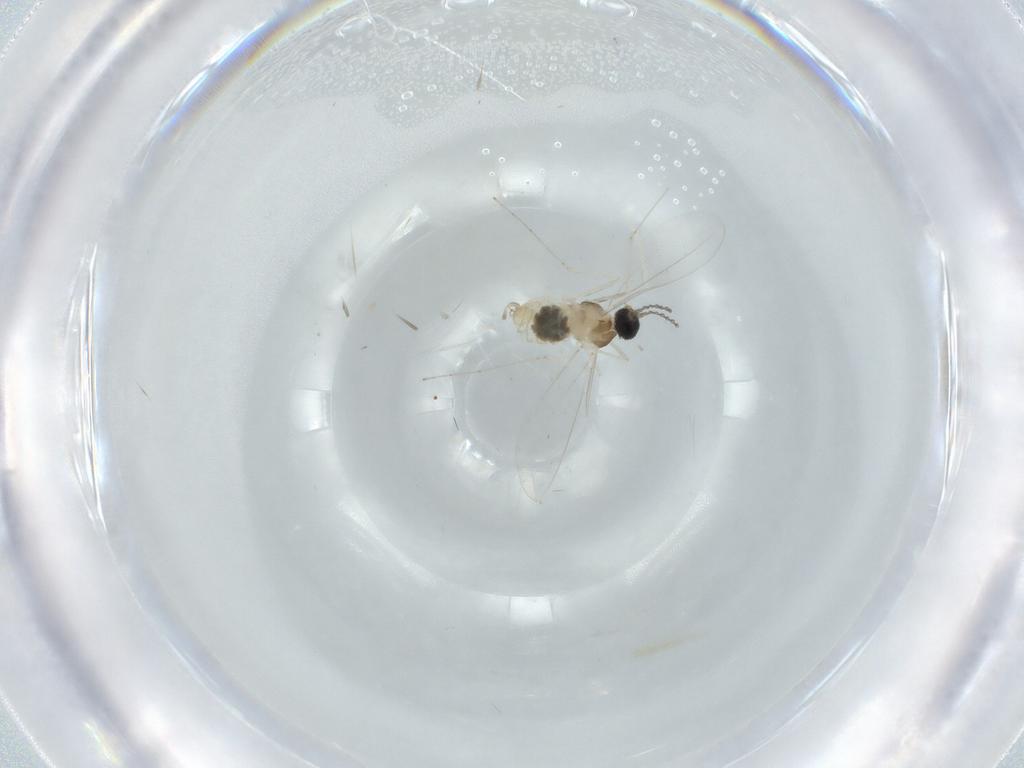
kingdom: Animalia
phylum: Arthropoda
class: Insecta
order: Diptera
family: Cecidomyiidae
